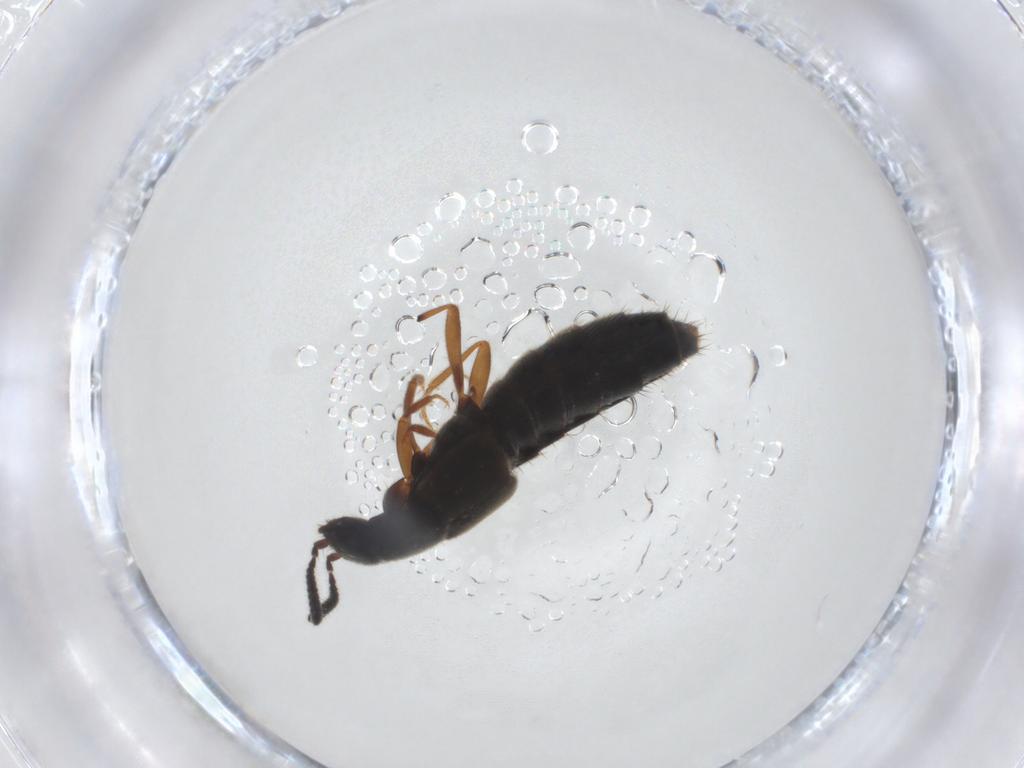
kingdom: Animalia
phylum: Arthropoda
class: Insecta
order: Coleoptera
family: Staphylinidae
